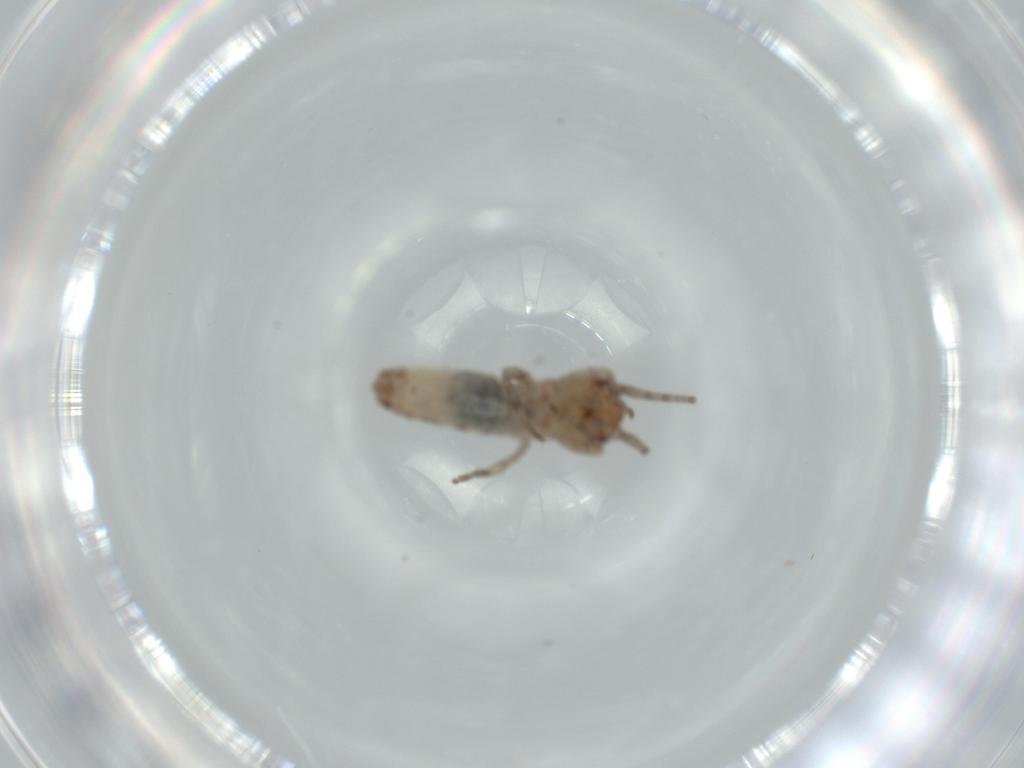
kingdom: Animalia
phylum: Arthropoda
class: Insecta
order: Orthoptera
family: Gryllidae
